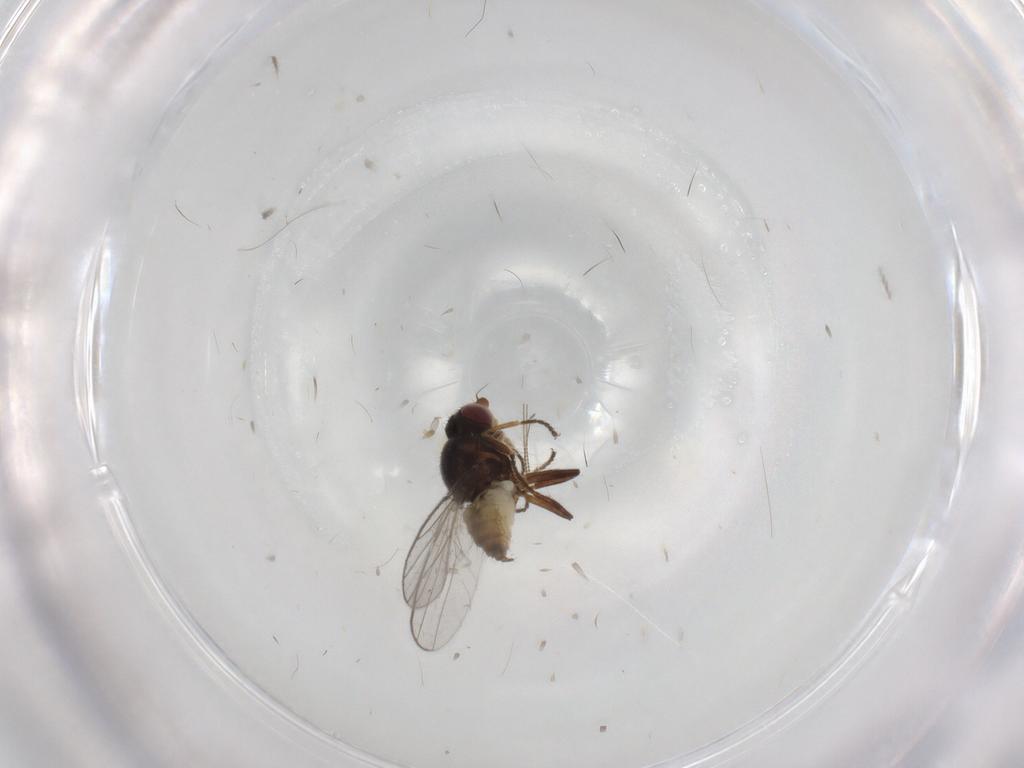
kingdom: Animalia
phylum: Arthropoda
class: Insecta
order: Diptera
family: Chloropidae
